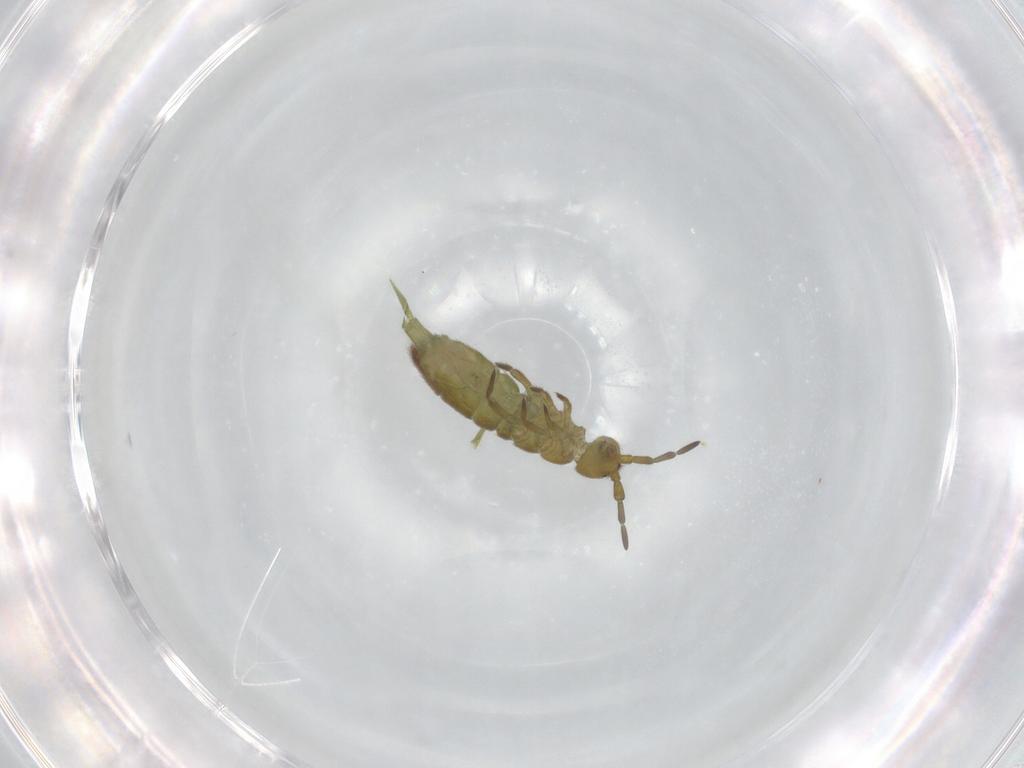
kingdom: Animalia
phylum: Arthropoda
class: Collembola
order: Entomobryomorpha
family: Isotomidae
